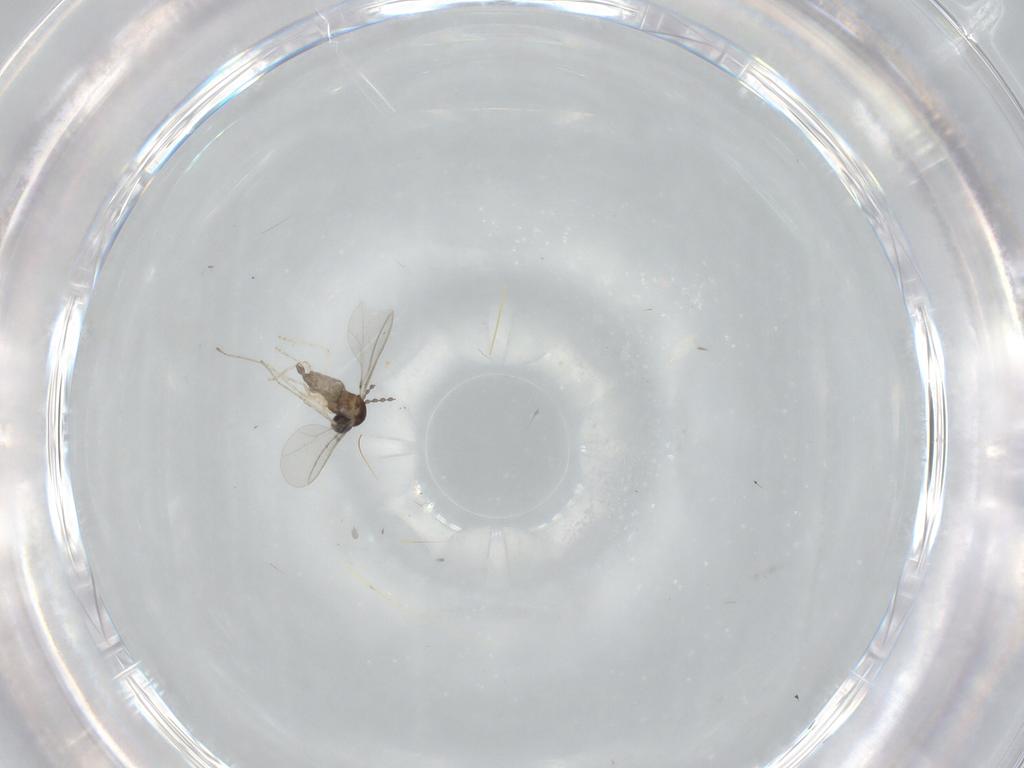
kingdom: Animalia
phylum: Arthropoda
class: Insecta
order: Diptera
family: Cecidomyiidae
